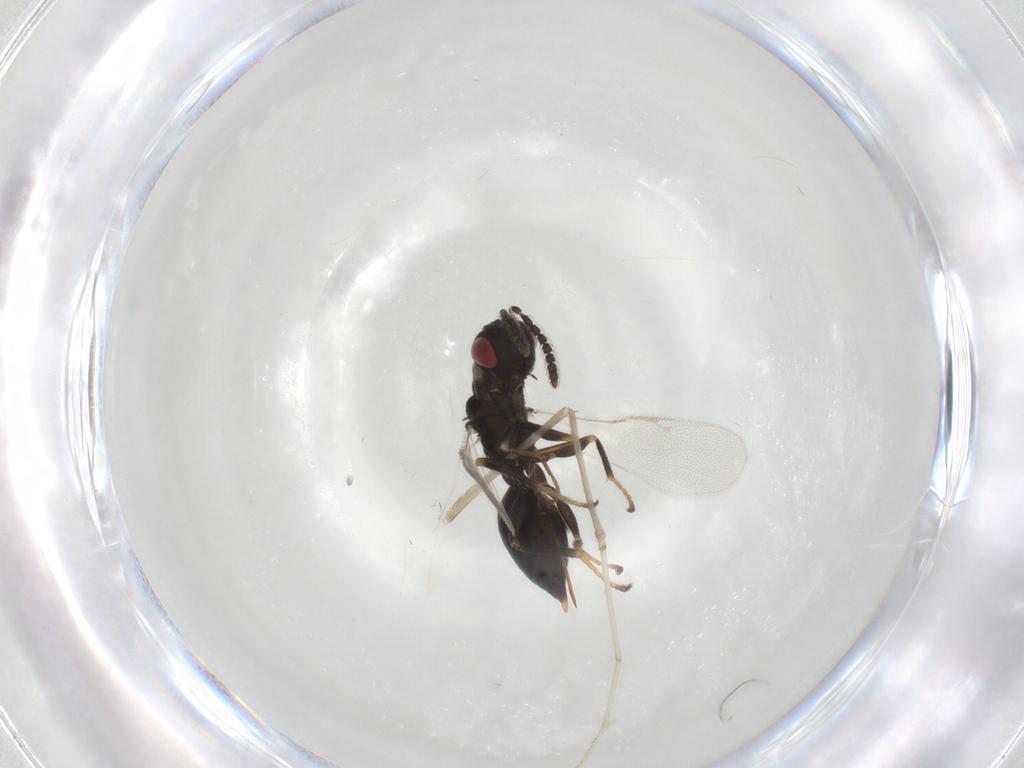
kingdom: Animalia
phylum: Arthropoda
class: Insecta
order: Hymenoptera
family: Eurytomidae
